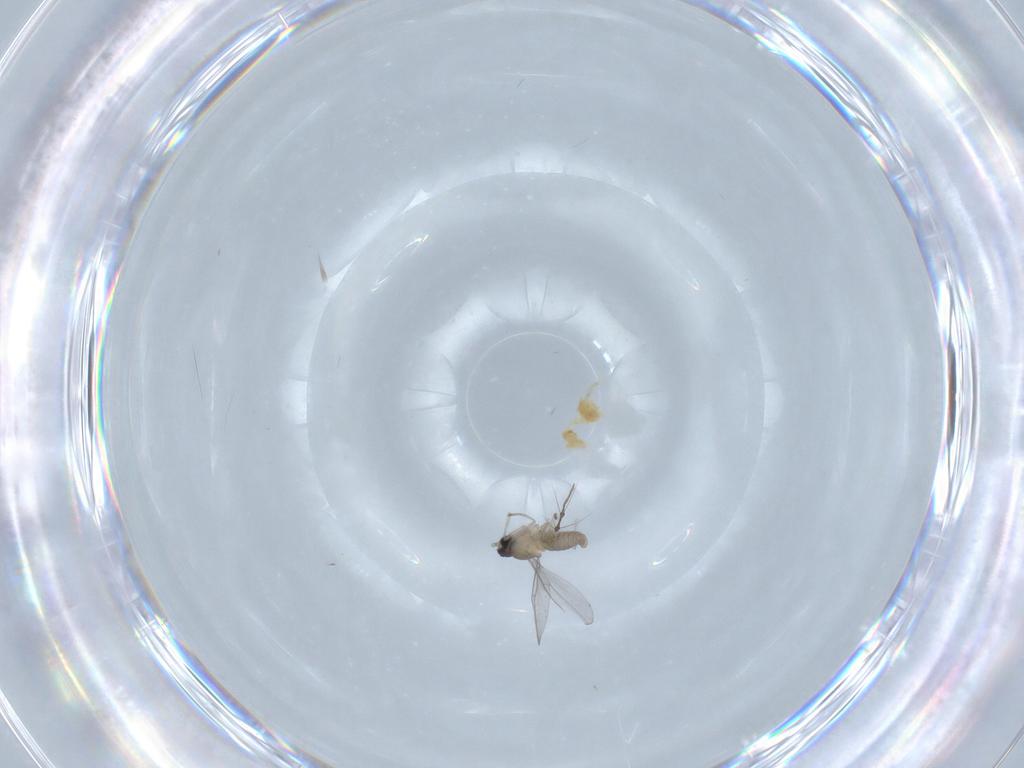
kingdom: Animalia
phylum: Arthropoda
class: Insecta
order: Diptera
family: Chironomidae
